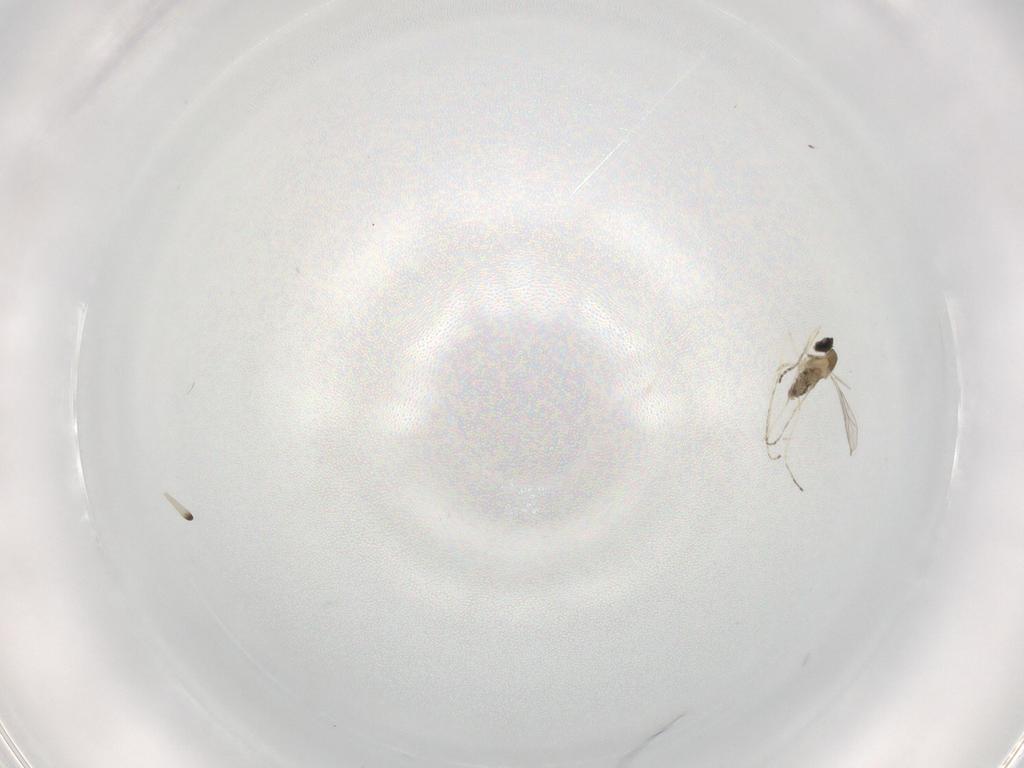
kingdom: Animalia
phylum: Arthropoda
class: Insecta
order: Diptera
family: Cecidomyiidae
